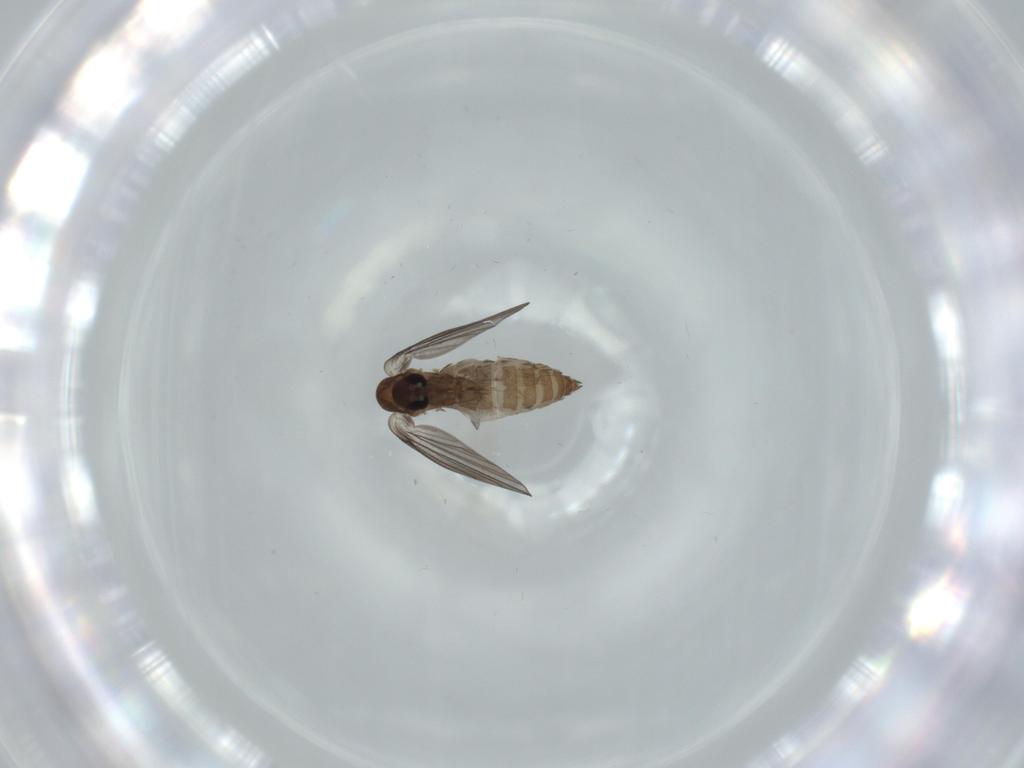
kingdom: Animalia
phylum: Arthropoda
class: Insecta
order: Diptera
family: Psychodidae
